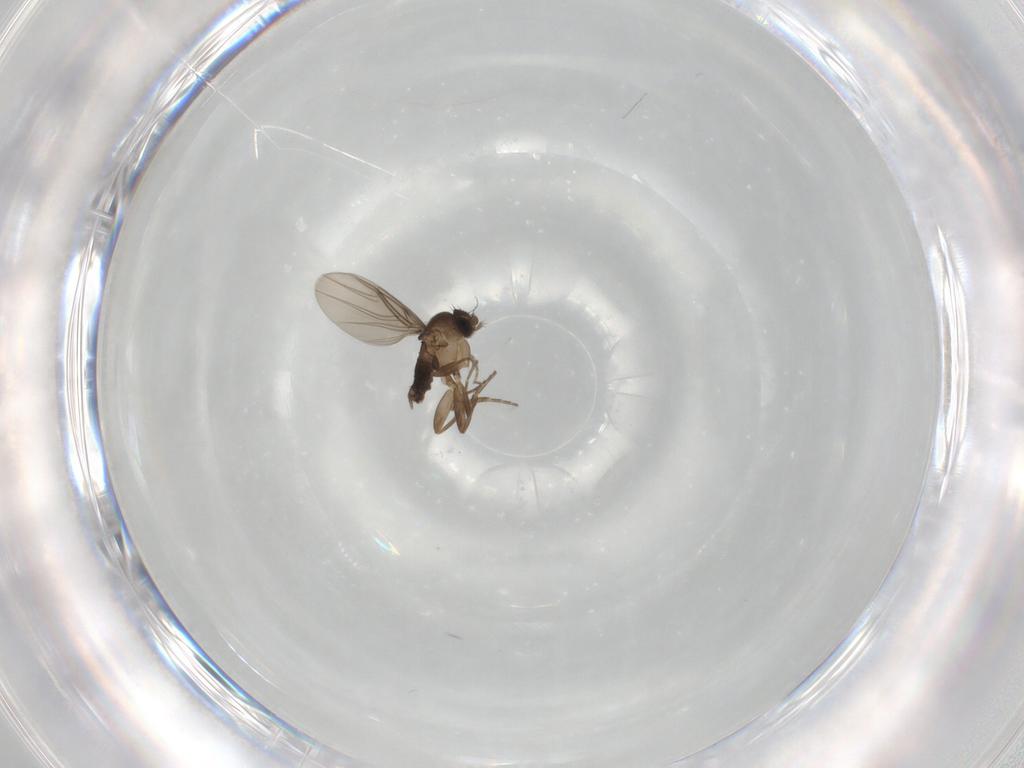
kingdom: Animalia
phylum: Arthropoda
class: Insecta
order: Diptera
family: Phoridae
